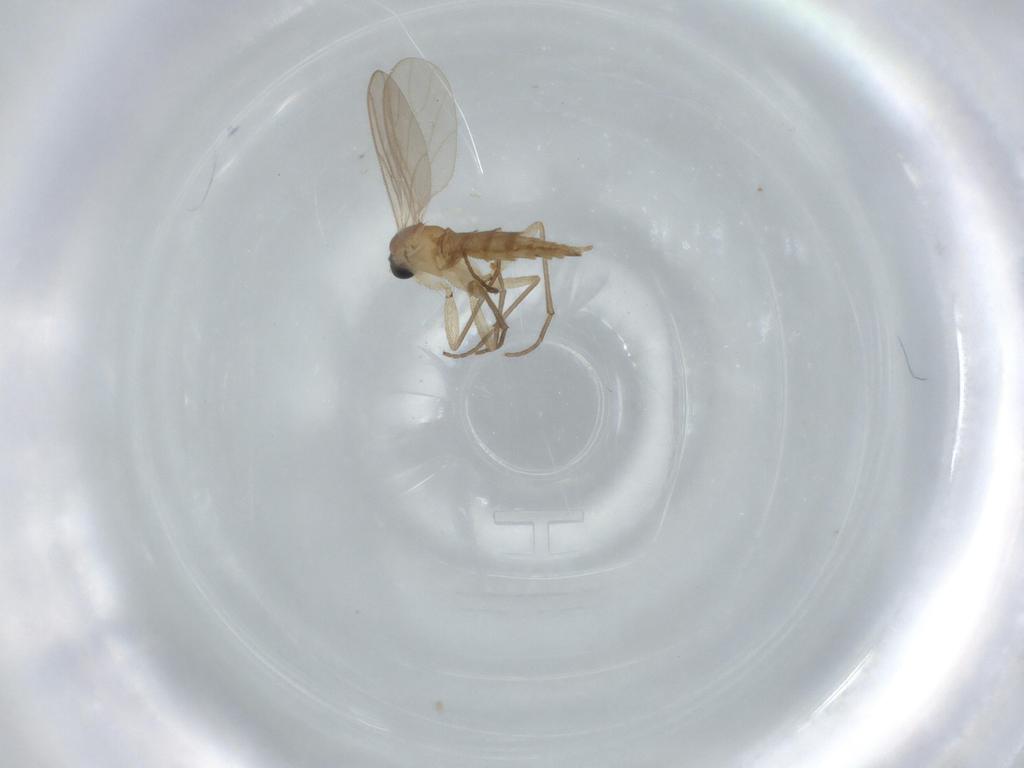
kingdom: Animalia
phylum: Arthropoda
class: Insecta
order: Diptera
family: Sciaridae
